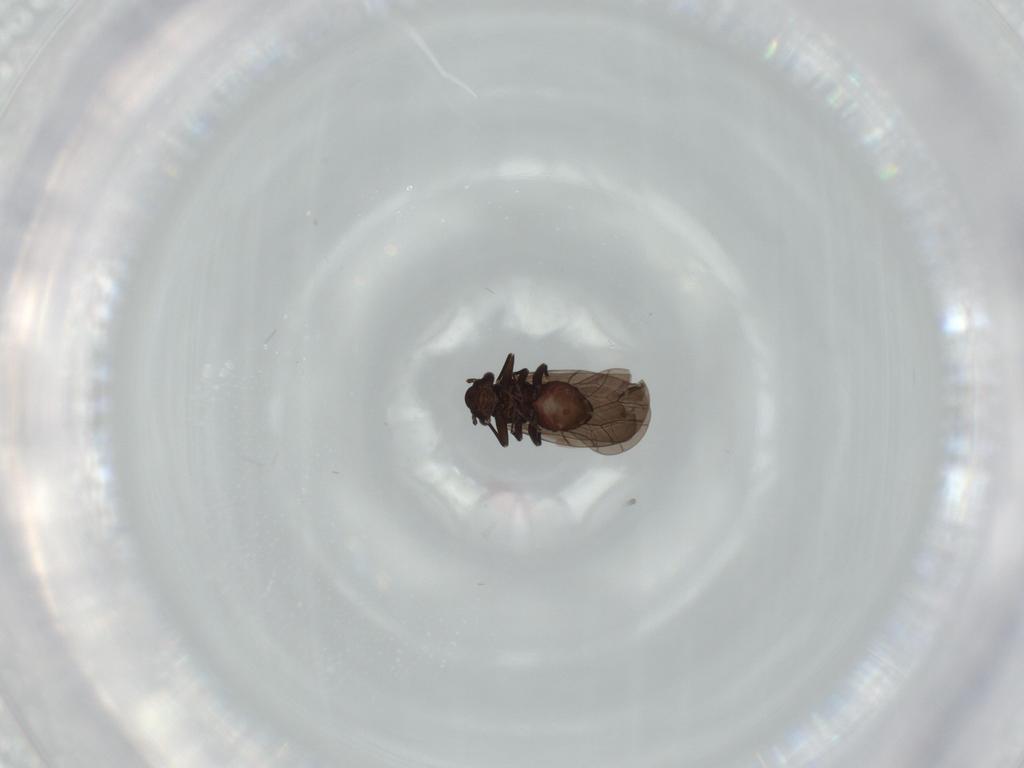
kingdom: Animalia
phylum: Arthropoda
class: Insecta
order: Psocodea
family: Lepidopsocidae
